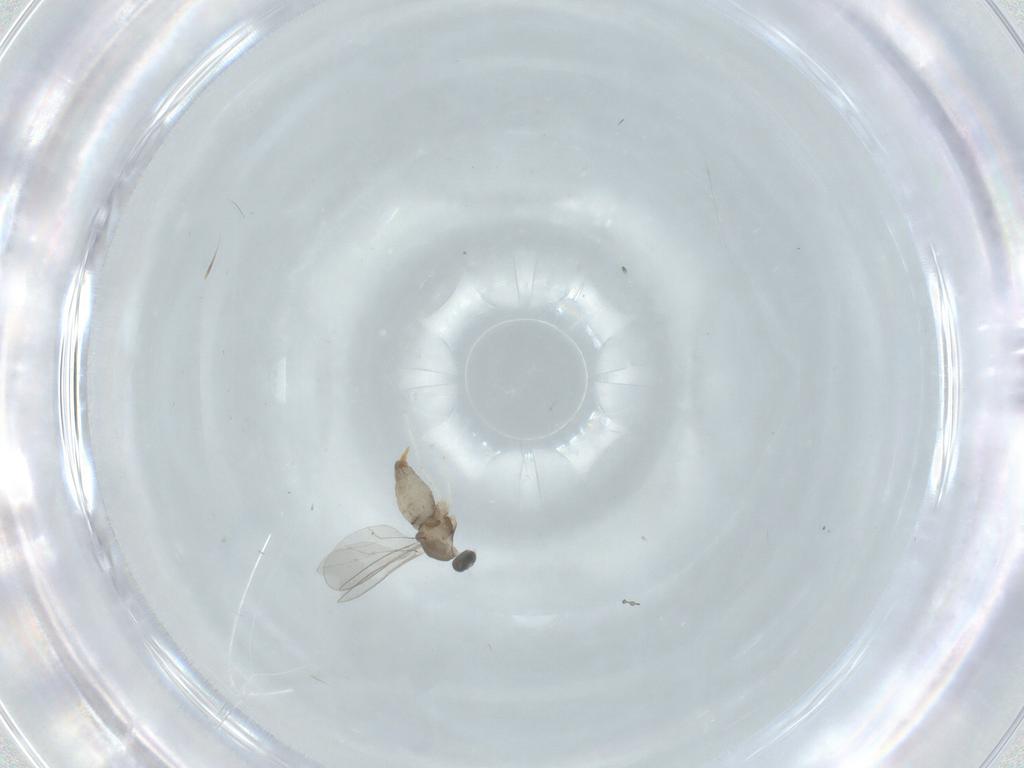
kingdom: Animalia
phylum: Arthropoda
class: Insecta
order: Diptera
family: Cecidomyiidae
